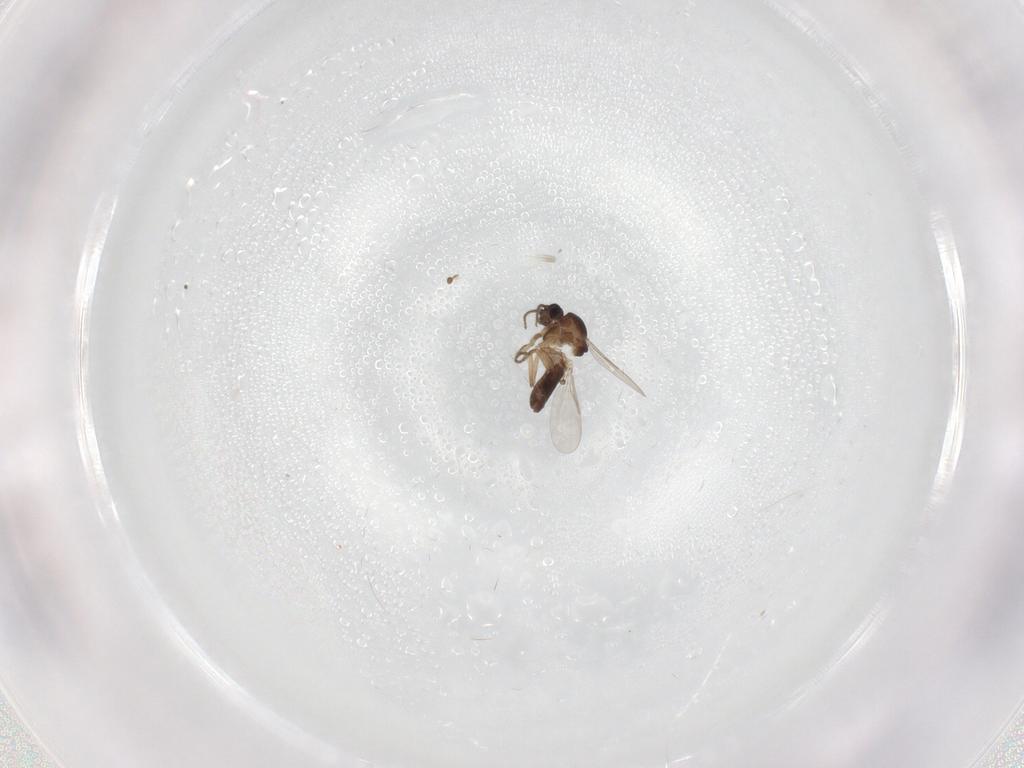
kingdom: Animalia
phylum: Arthropoda
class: Insecta
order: Diptera
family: Ceratopogonidae
